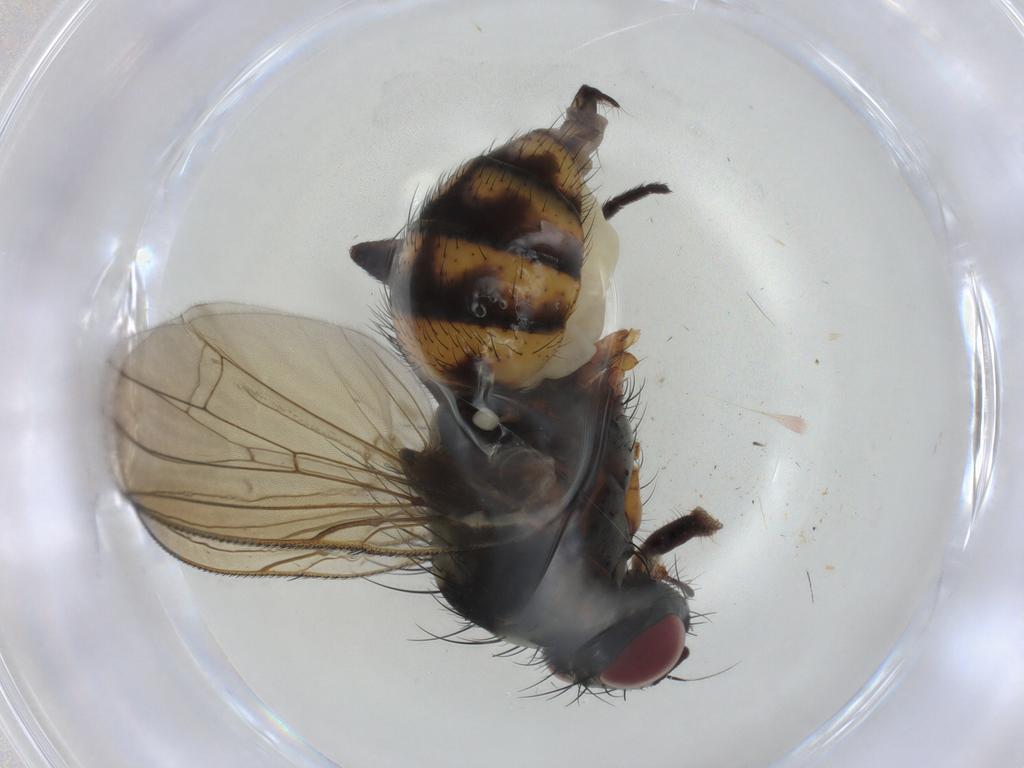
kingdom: Animalia
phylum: Arthropoda
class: Insecta
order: Diptera
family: Anthomyiidae
